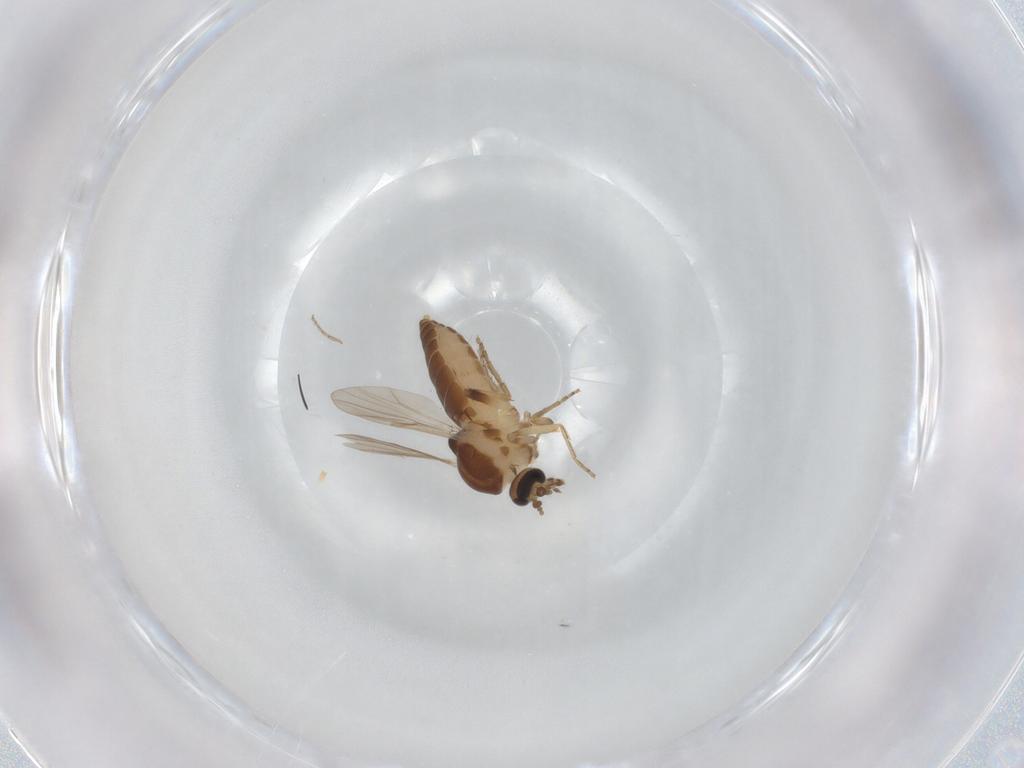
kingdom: Animalia
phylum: Arthropoda
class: Insecta
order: Diptera
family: Ceratopogonidae
